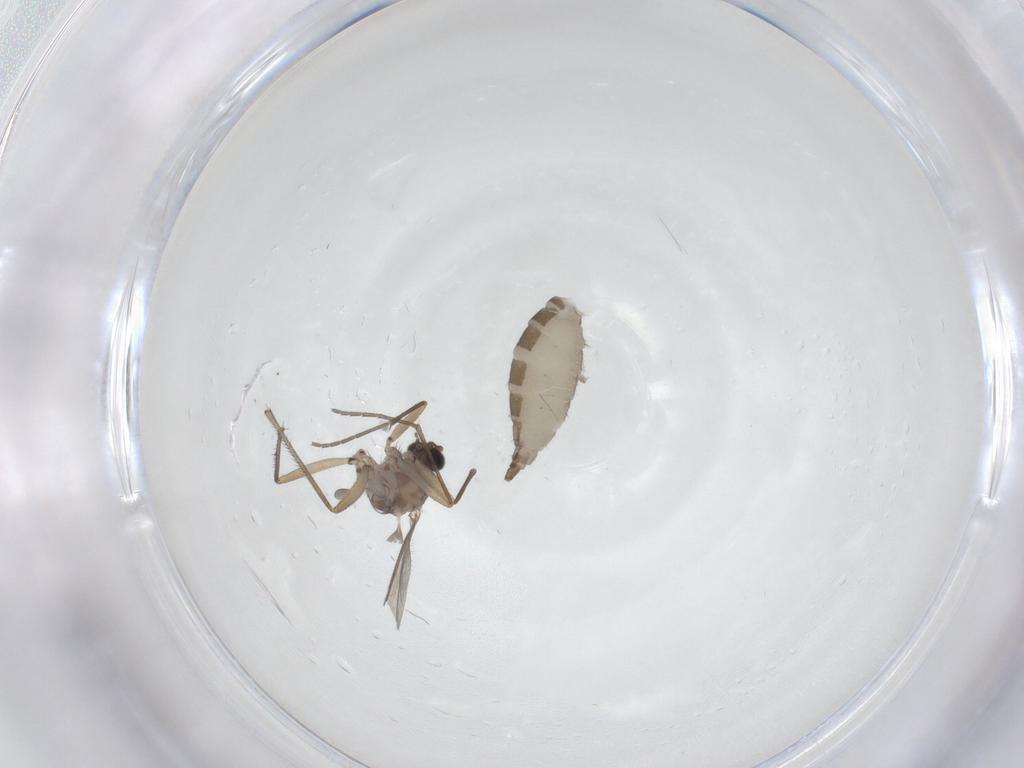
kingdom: Animalia
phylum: Arthropoda
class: Insecta
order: Diptera
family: Sciaridae
